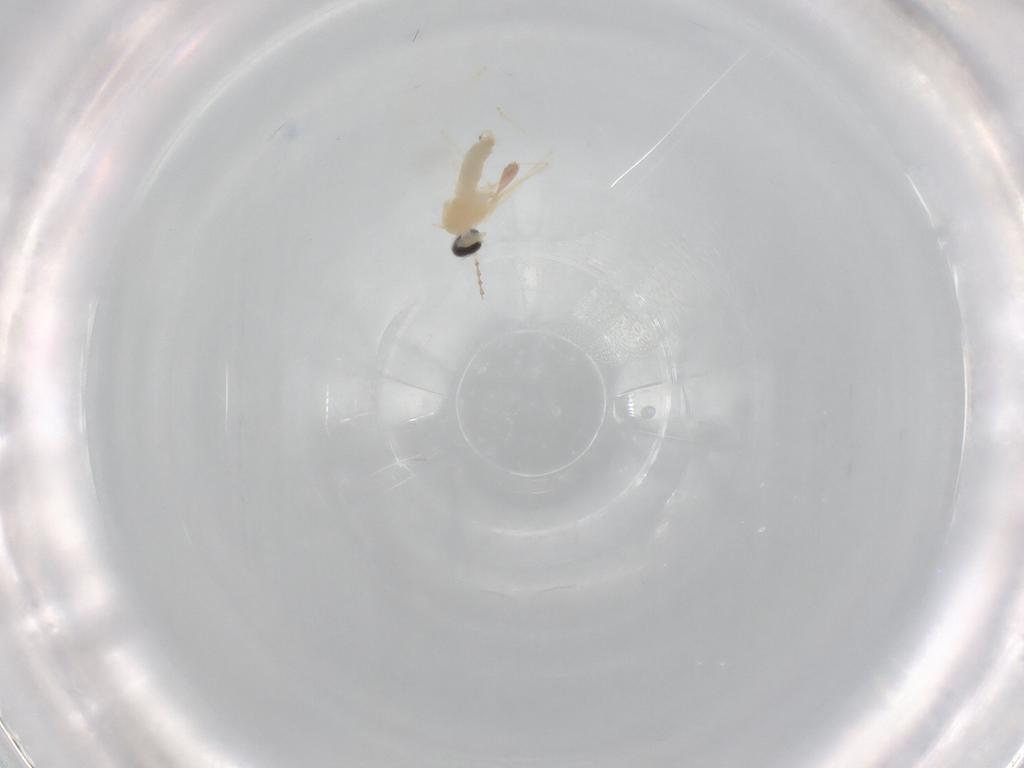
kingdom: Animalia
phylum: Arthropoda
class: Insecta
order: Diptera
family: Cecidomyiidae
